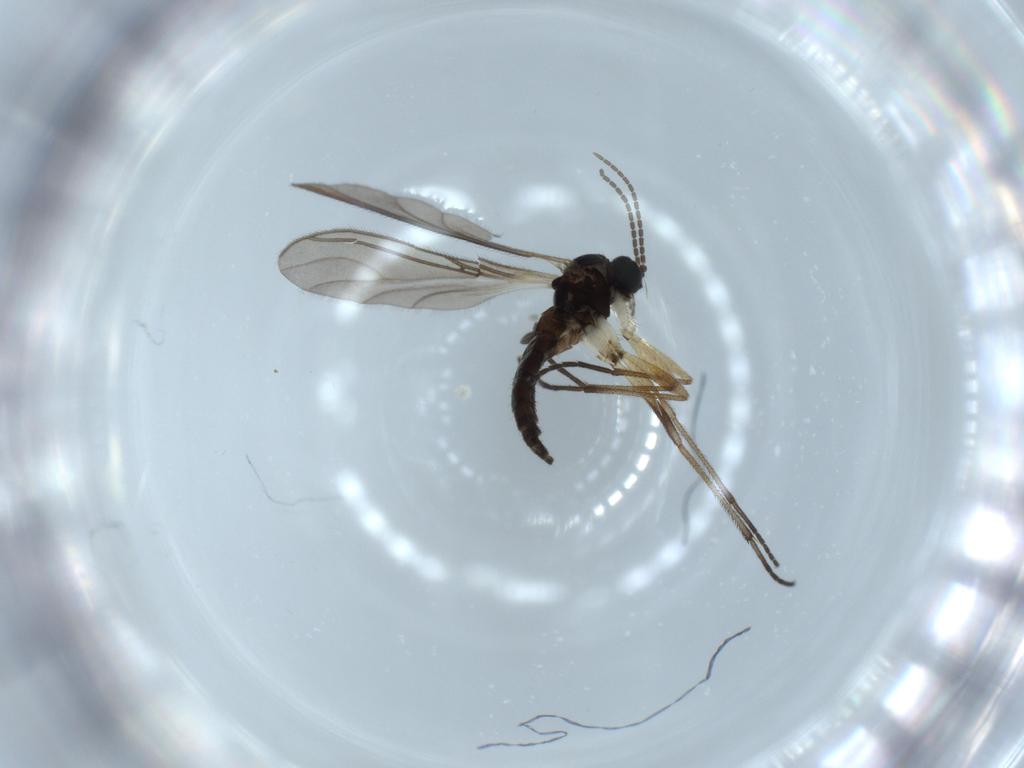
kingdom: Animalia
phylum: Arthropoda
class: Insecta
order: Diptera
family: Sciaridae
